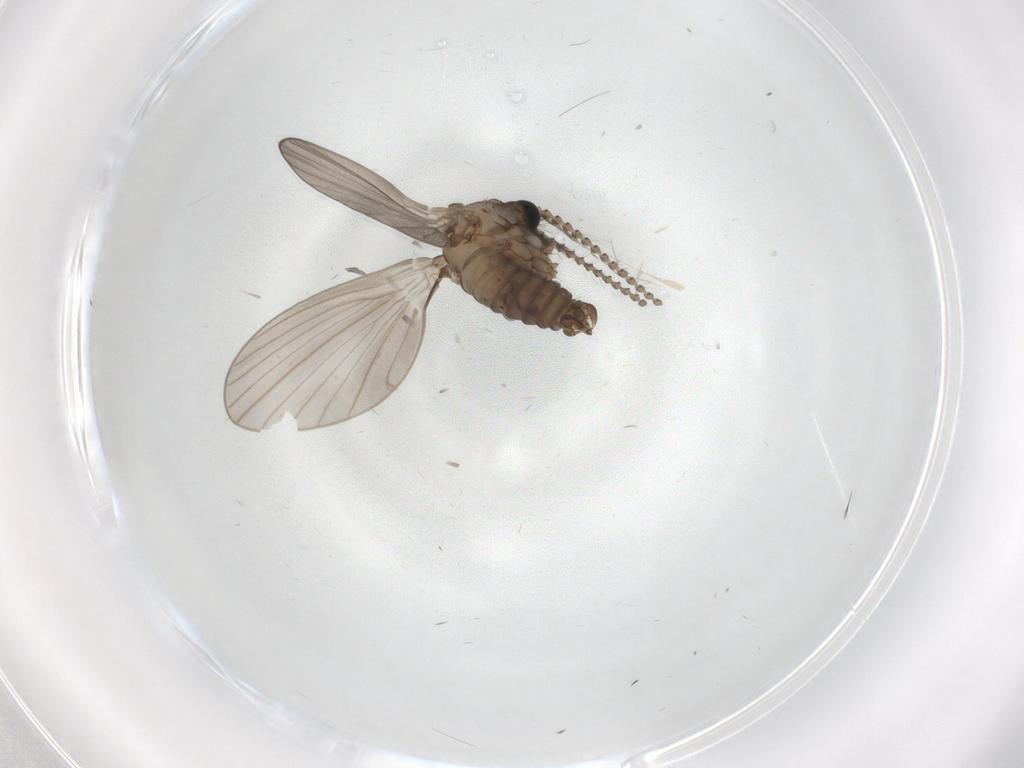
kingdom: Animalia
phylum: Arthropoda
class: Insecta
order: Diptera
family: Psychodidae
